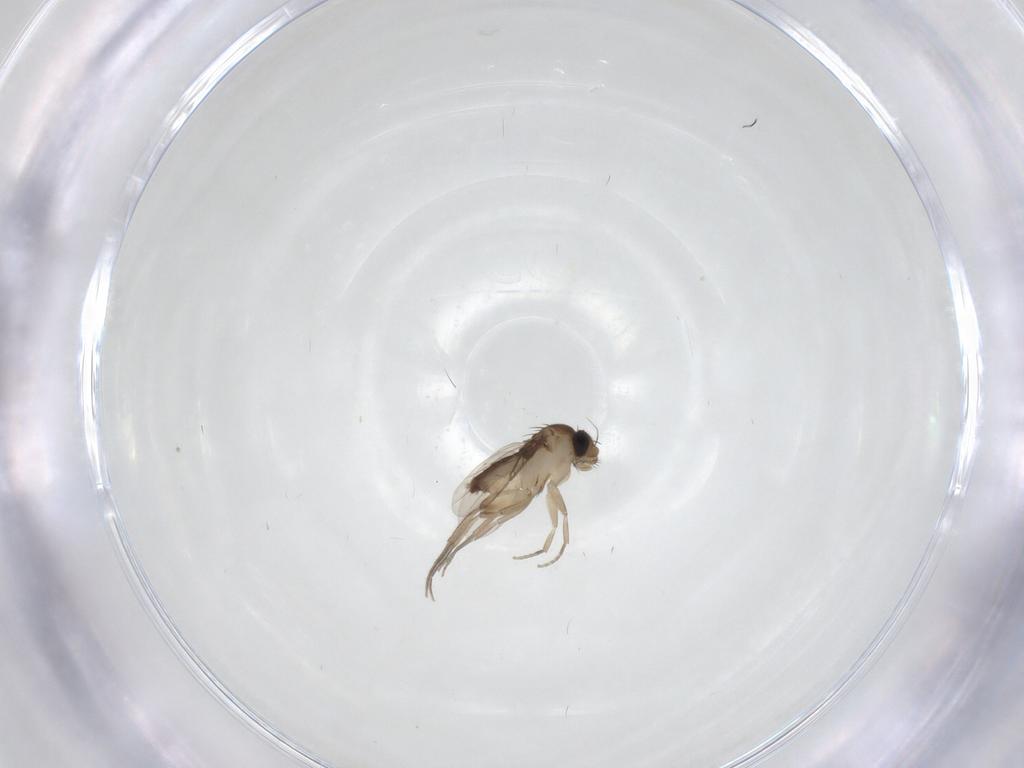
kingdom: Animalia
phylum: Arthropoda
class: Insecta
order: Diptera
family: Phoridae
